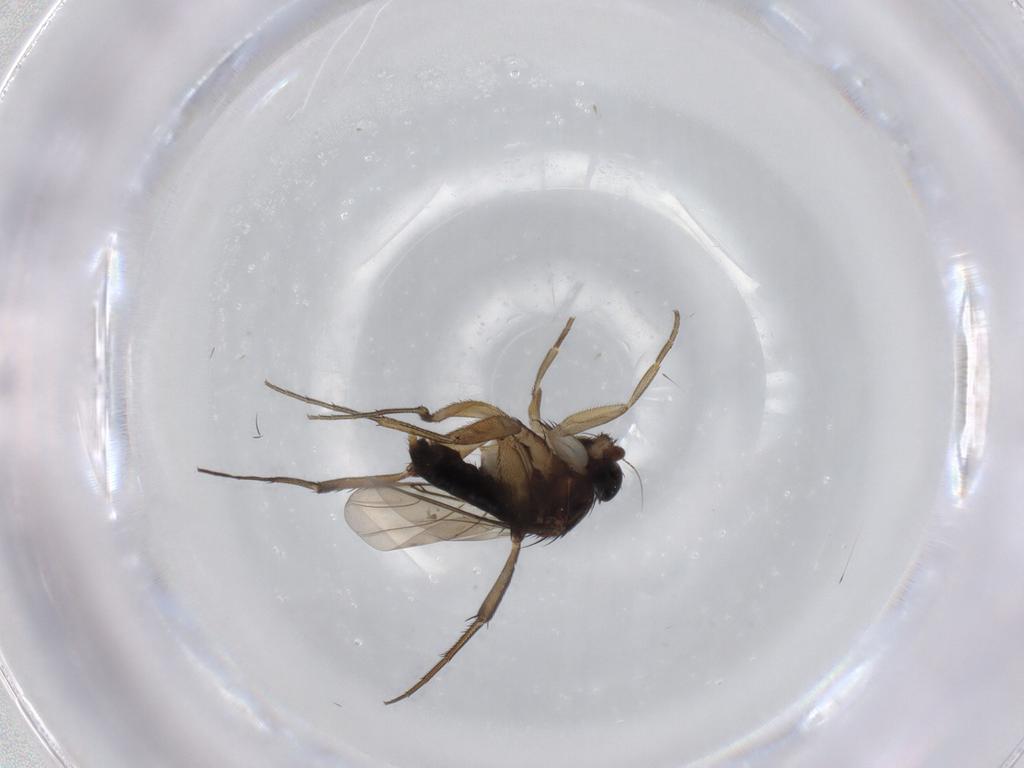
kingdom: Animalia
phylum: Arthropoda
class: Insecta
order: Diptera
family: Phoridae
